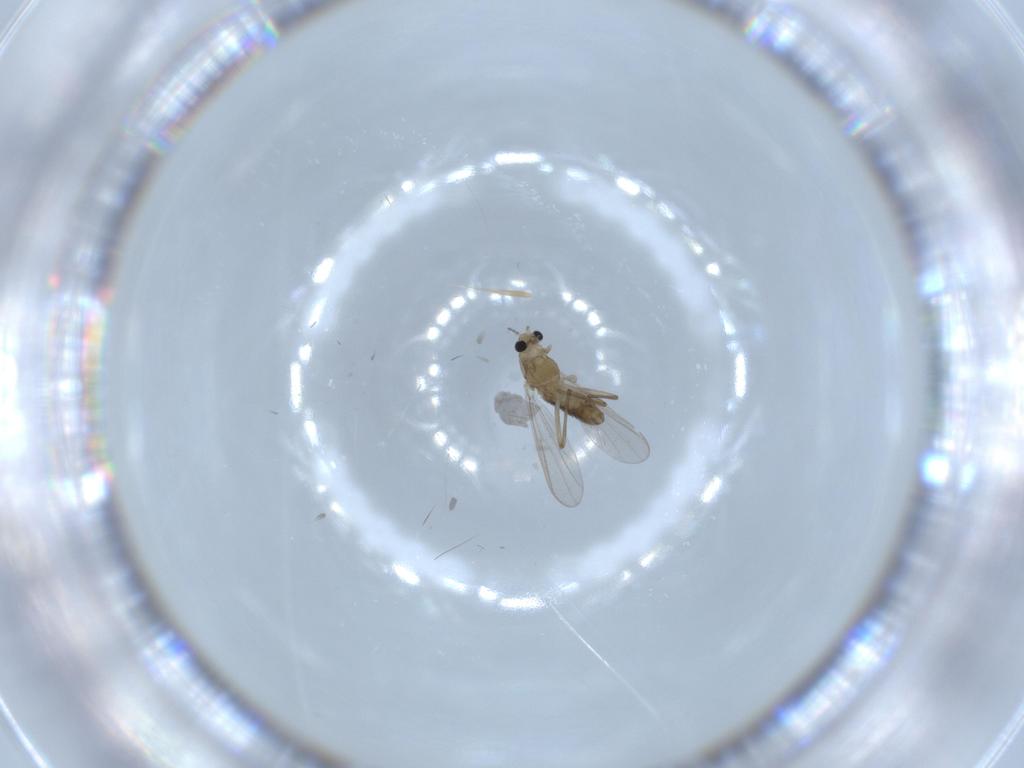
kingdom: Animalia
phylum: Arthropoda
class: Insecta
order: Diptera
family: Chironomidae
